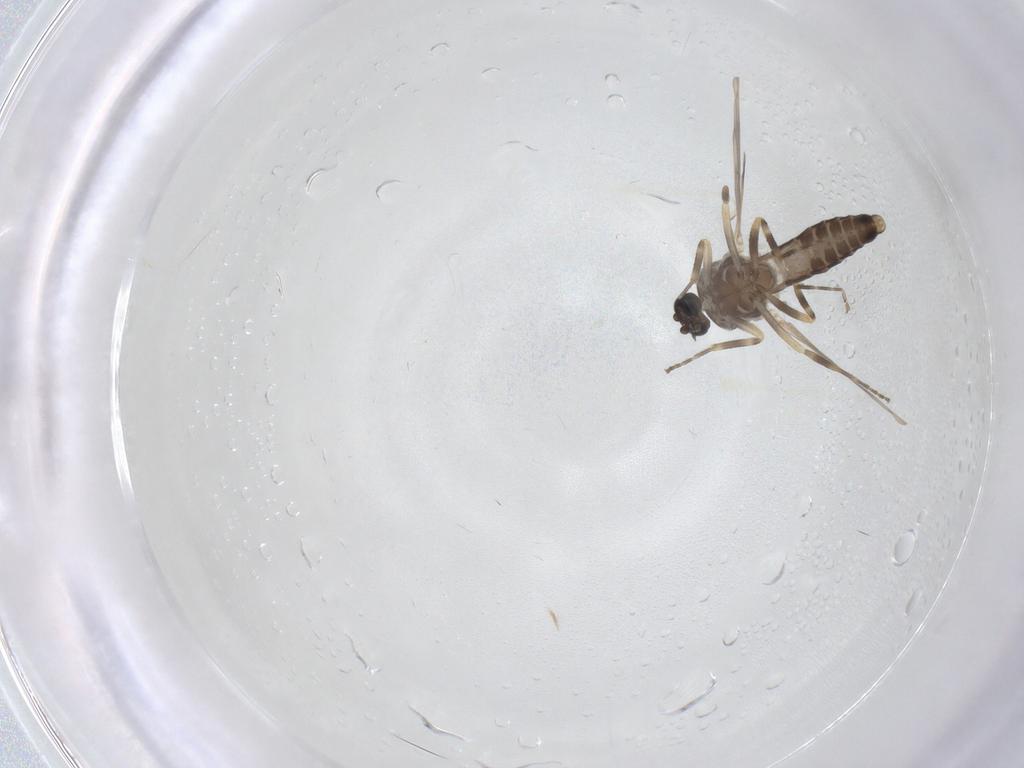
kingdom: Animalia
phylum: Arthropoda
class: Insecta
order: Diptera
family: Ceratopogonidae
